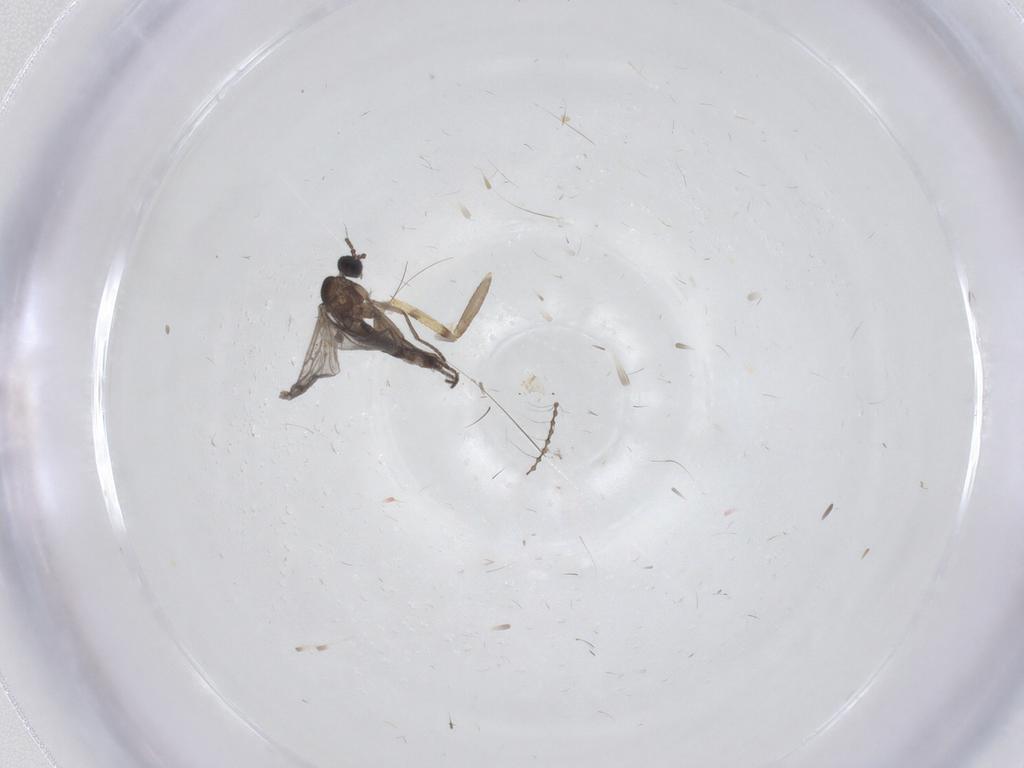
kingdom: Animalia
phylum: Arthropoda
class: Insecta
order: Diptera
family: Sciaridae
